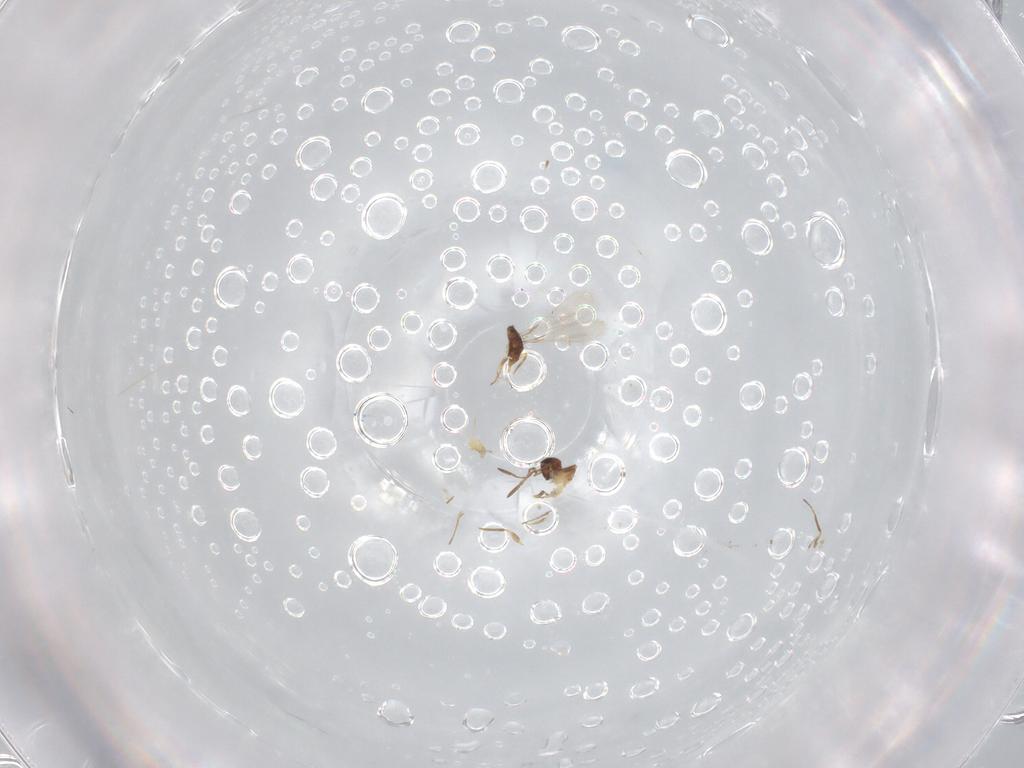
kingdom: Animalia
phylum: Arthropoda
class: Insecta
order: Hymenoptera
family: Mymaridae
